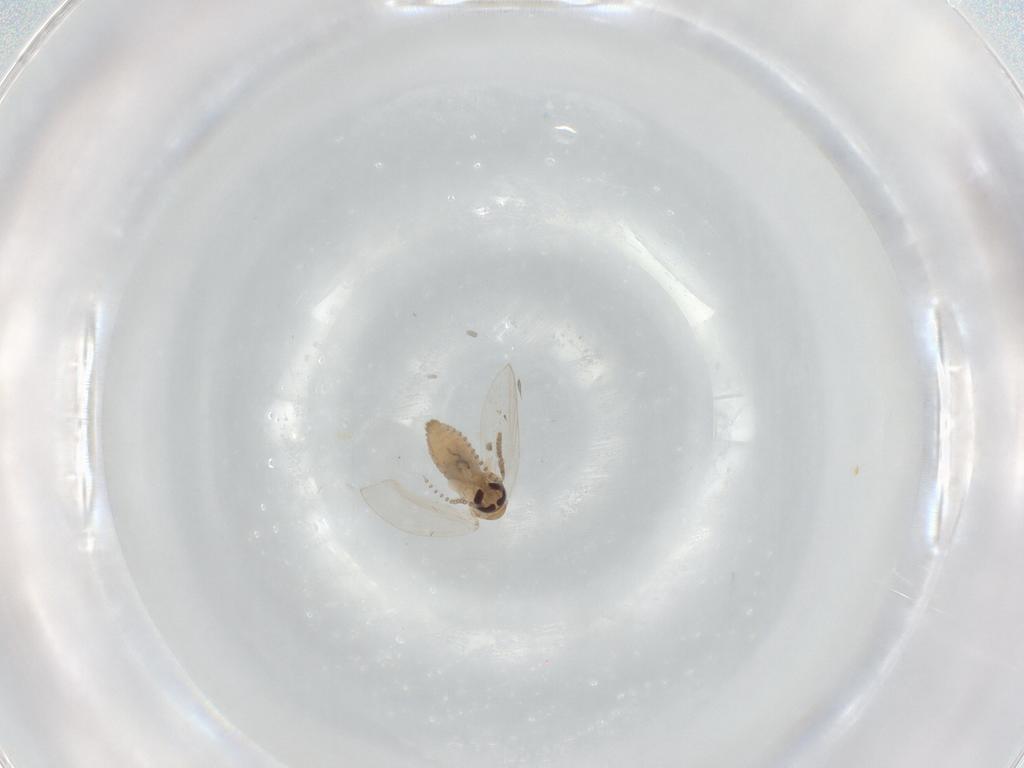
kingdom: Animalia
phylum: Arthropoda
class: Insecta
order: Diptera
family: Psychodidae
